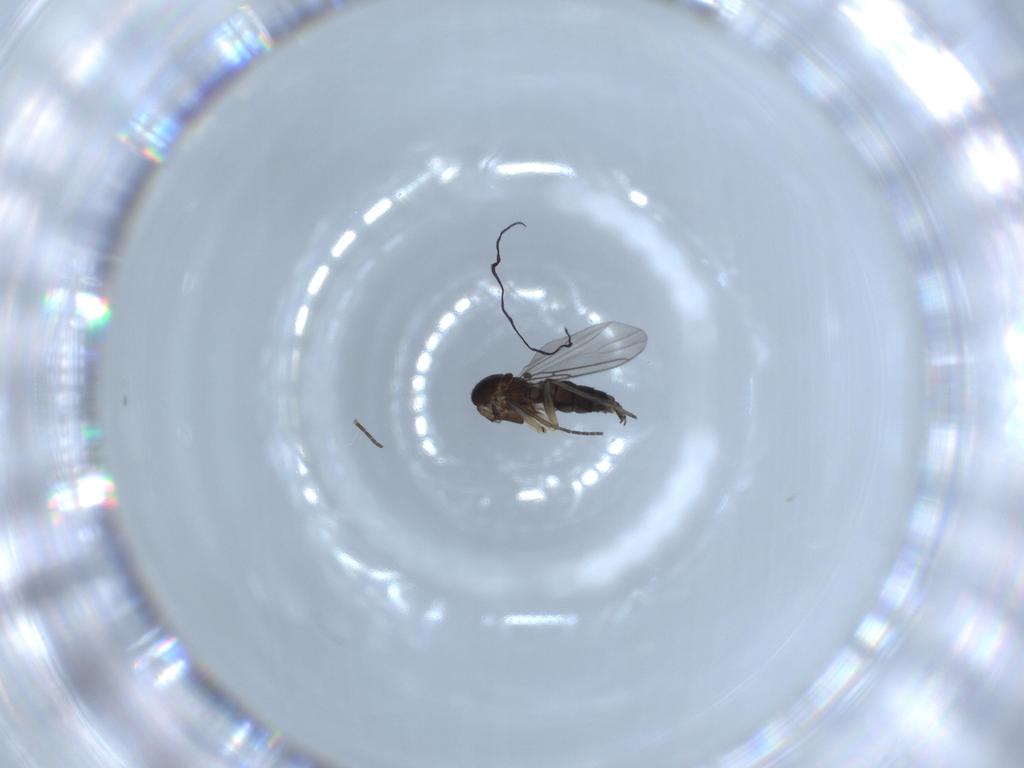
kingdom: Animalia
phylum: Arthropoda
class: Insecta
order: Diptera
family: Sciaridae
